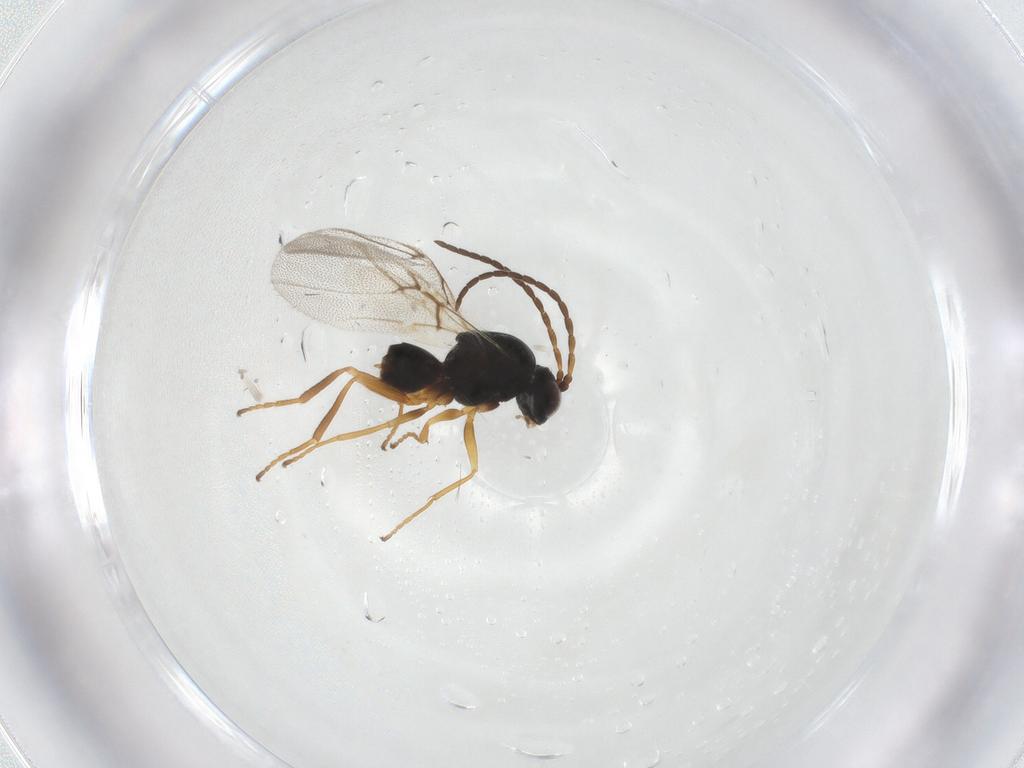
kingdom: Animalia
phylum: Arthropoda
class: Insecta
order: Hymenoptera
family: Cynipidae
